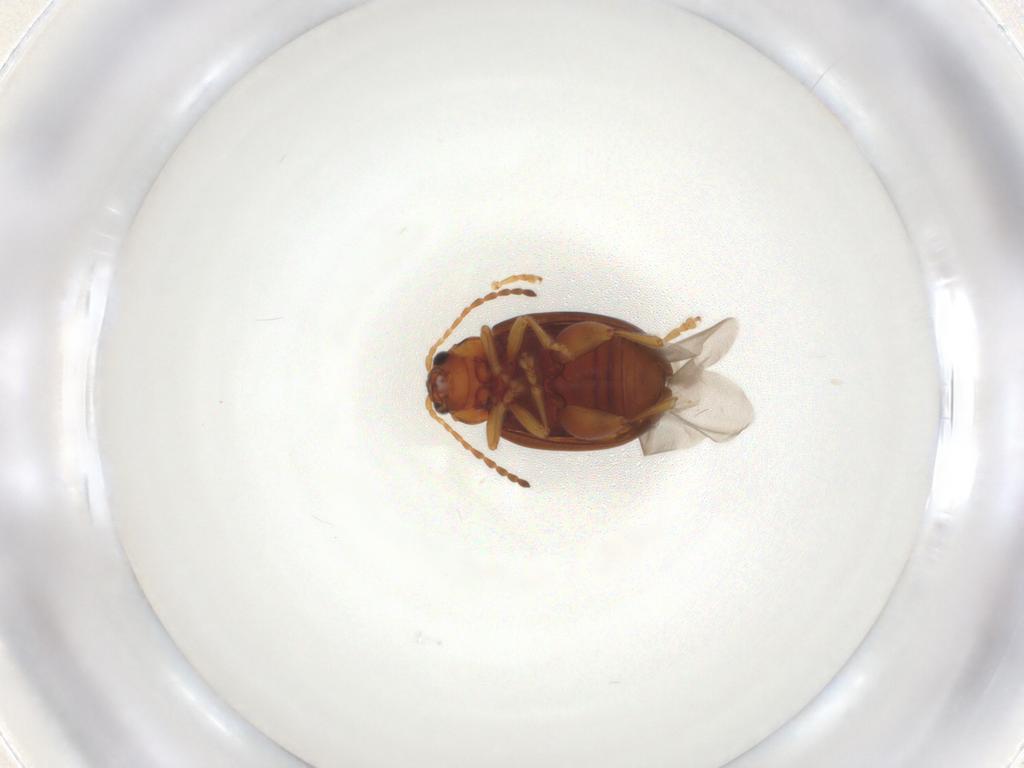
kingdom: Animalia
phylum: Arthropoda
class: Insecta
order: Coleoptera
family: Chrysomelidae
